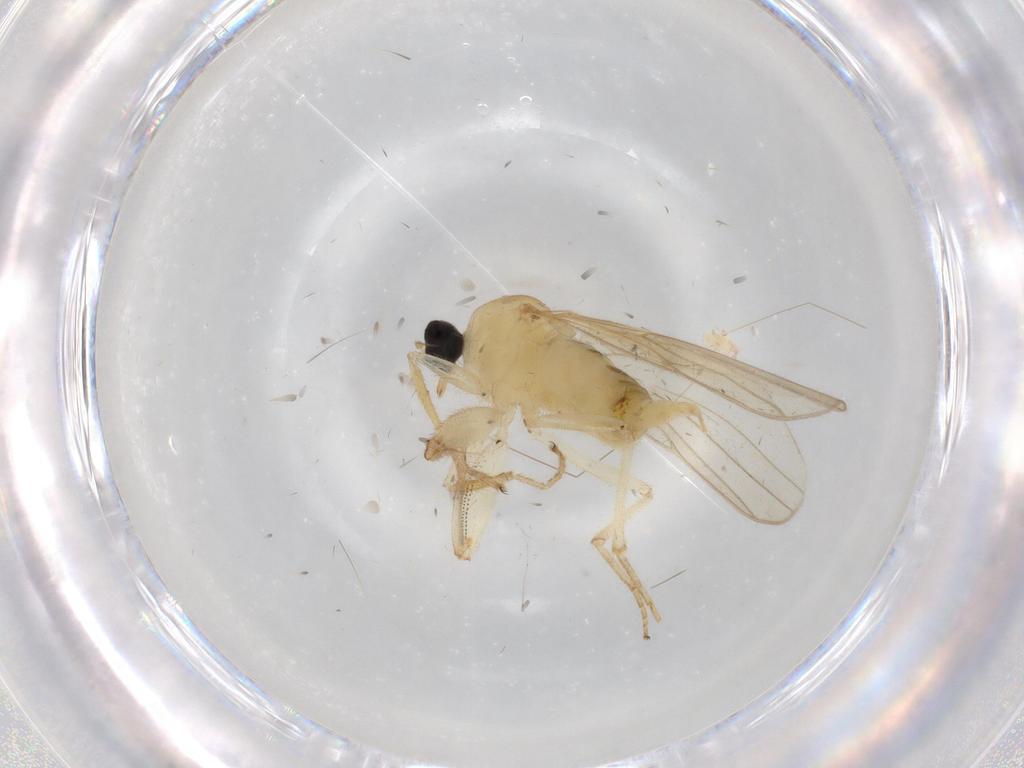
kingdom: Animalia
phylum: Arthropoda
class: Insecta
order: Diptera
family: Hybotidae
